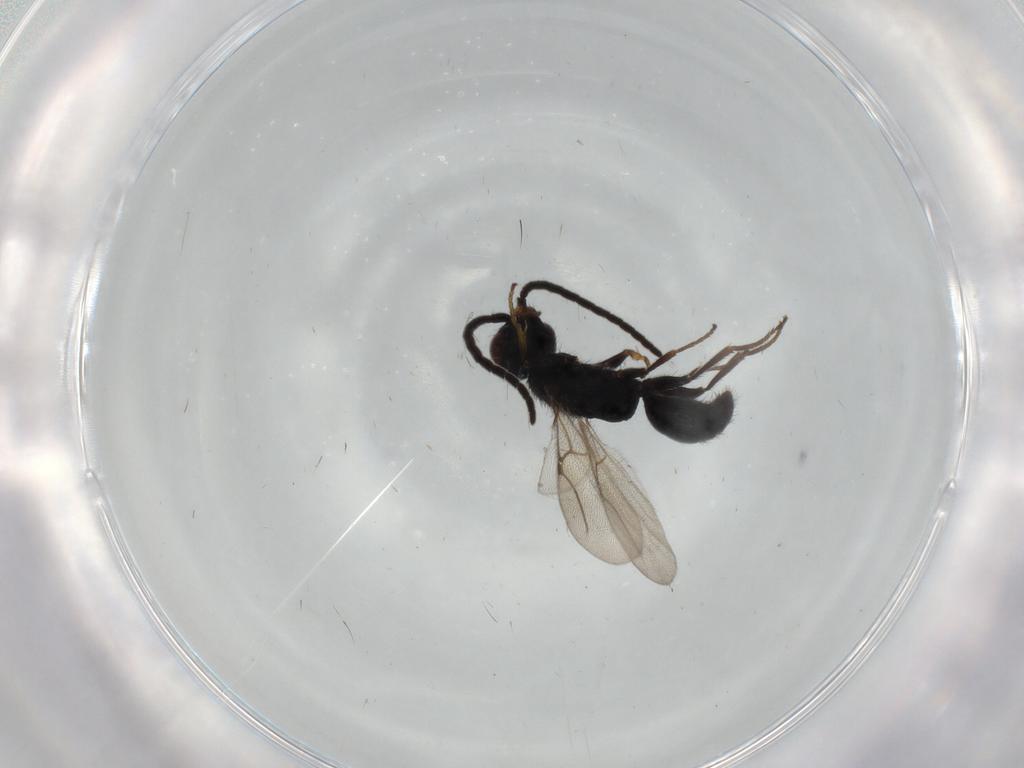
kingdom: Animalia
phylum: Arthropoda
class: Insecta
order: Hymenoptera
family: Bethylidae
